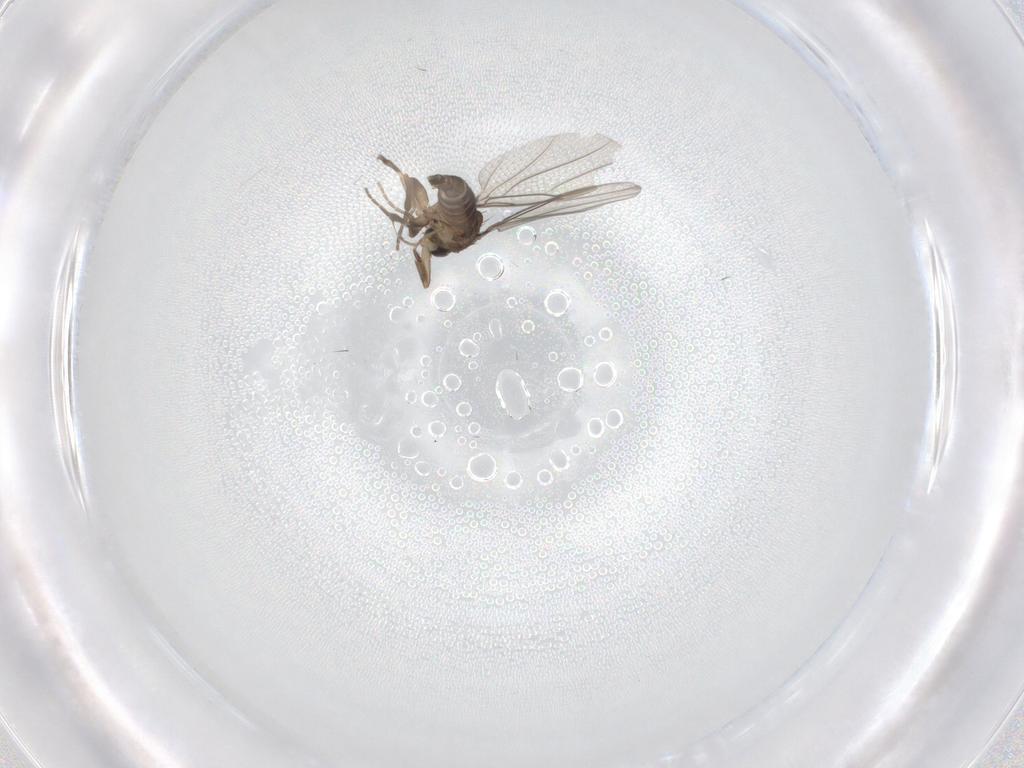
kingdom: Animalia
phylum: Arthropoda
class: Insecta
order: Diptera
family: Phoridae
